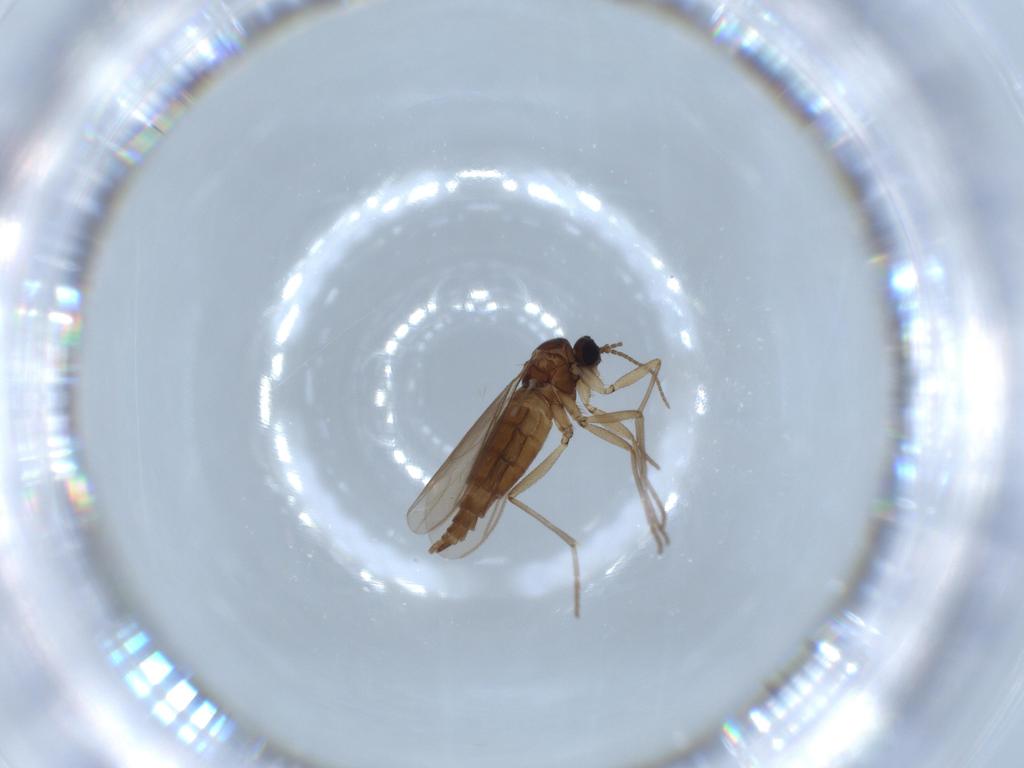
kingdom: Animalia
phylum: Arthropoda
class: Insecta
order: Diptera
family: Sciaridae
